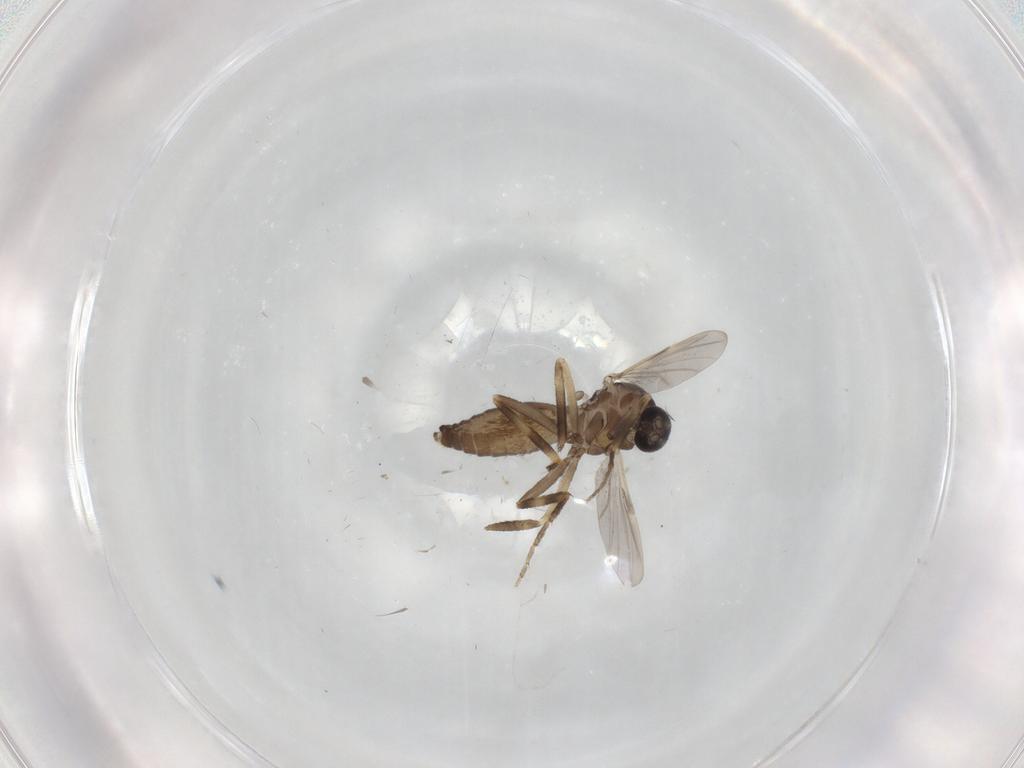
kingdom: Animalia
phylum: Arthropoda
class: Insecta
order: Diptera
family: Ceratopogonidae
